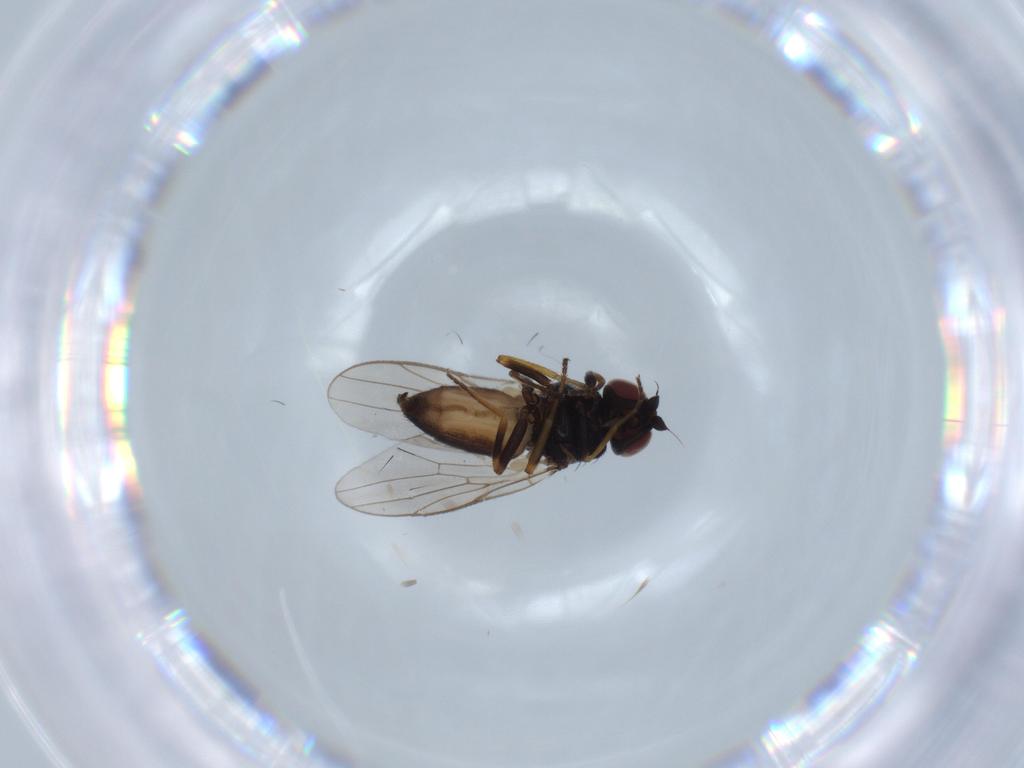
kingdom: Animalia
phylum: Arthropoda
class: Insecta
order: Diptera
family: Chloropidae
